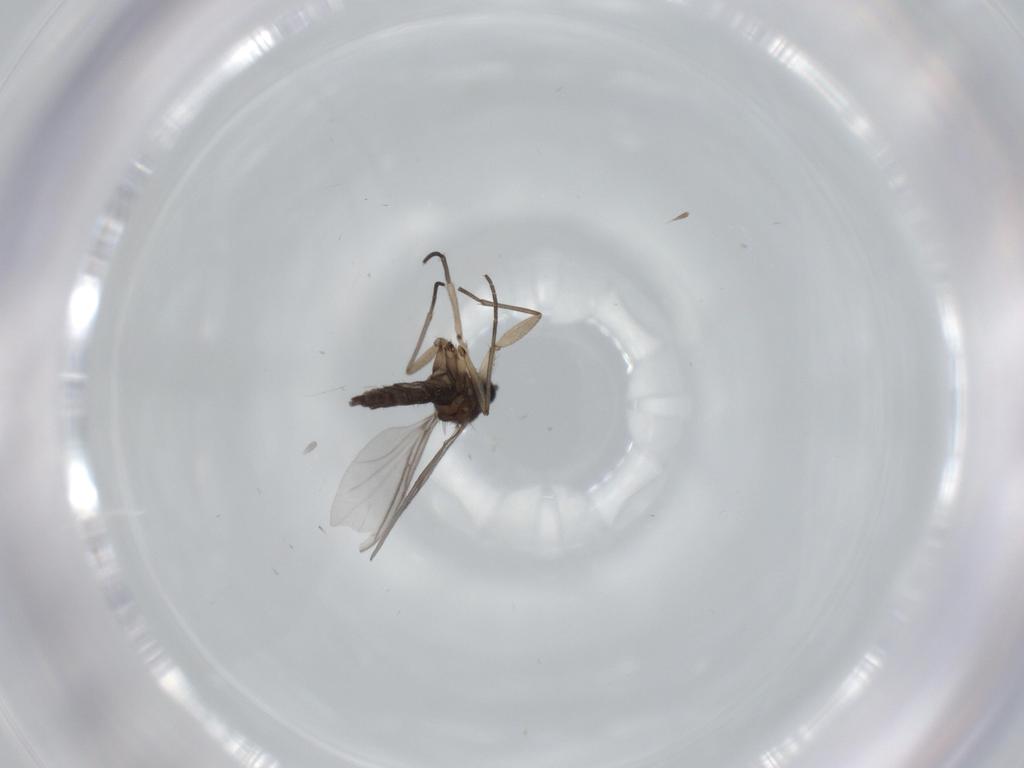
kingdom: Animalia
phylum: Arthropoda
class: Insecta
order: Diptera
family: Sciaridae
